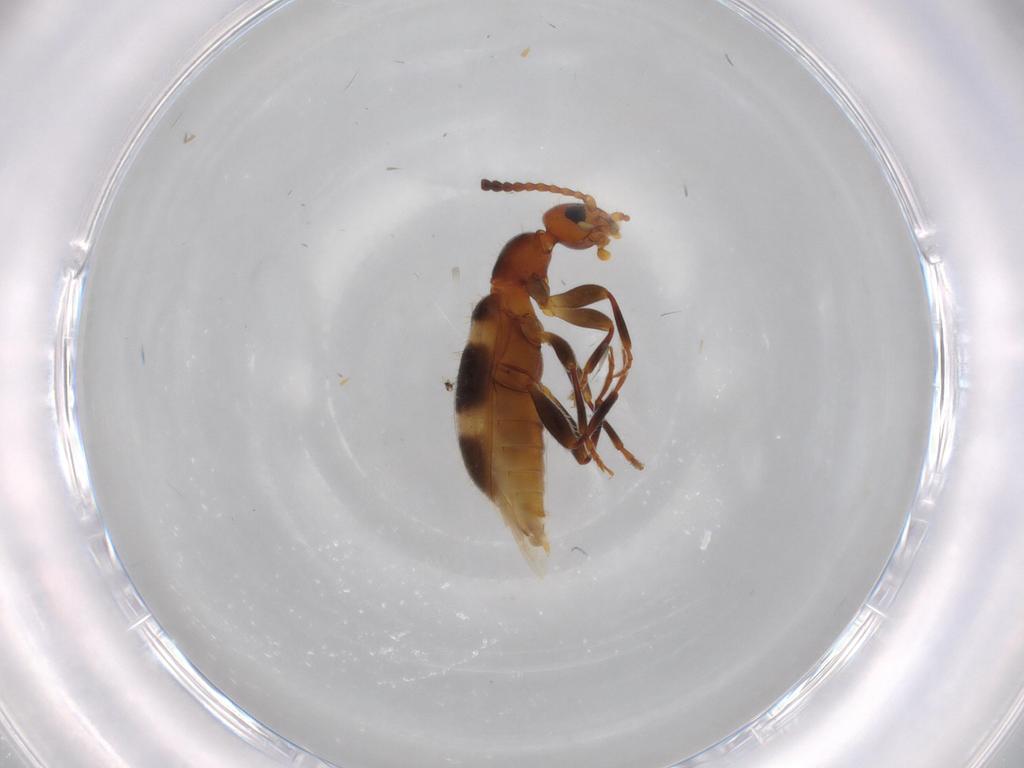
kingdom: Animalia
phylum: Arthropoda
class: Insecta
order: Coleoptera
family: Anthicidae
